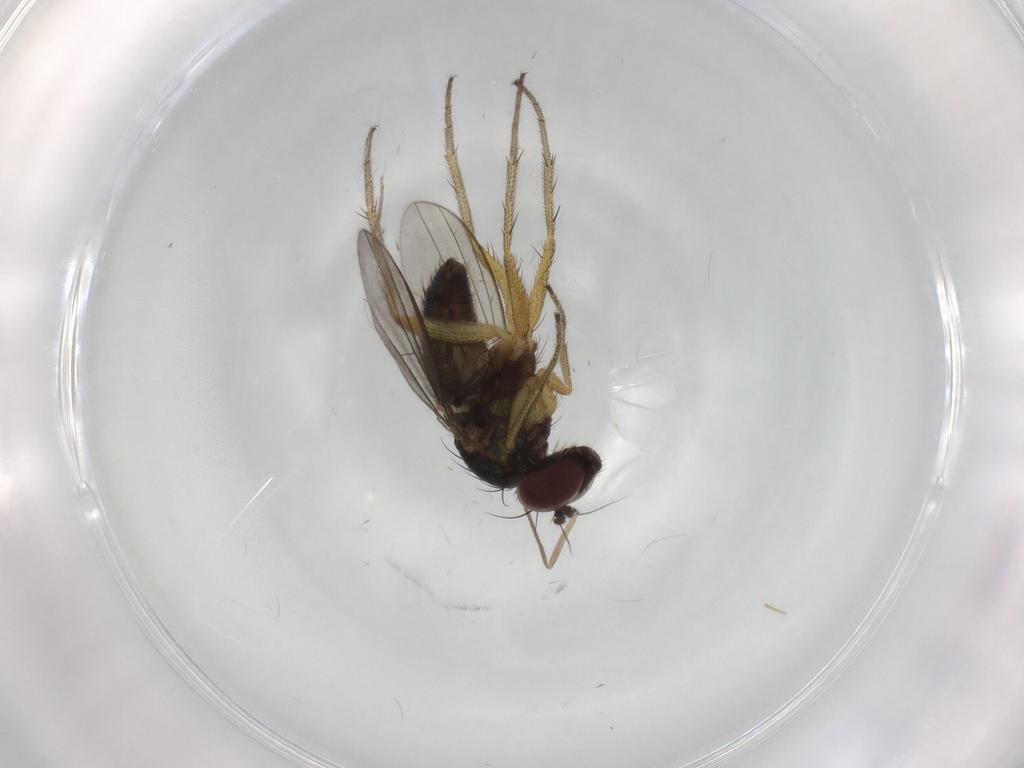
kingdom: Animalia
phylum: Arthropoda
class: Insecta
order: Diptera
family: Chironomidae
